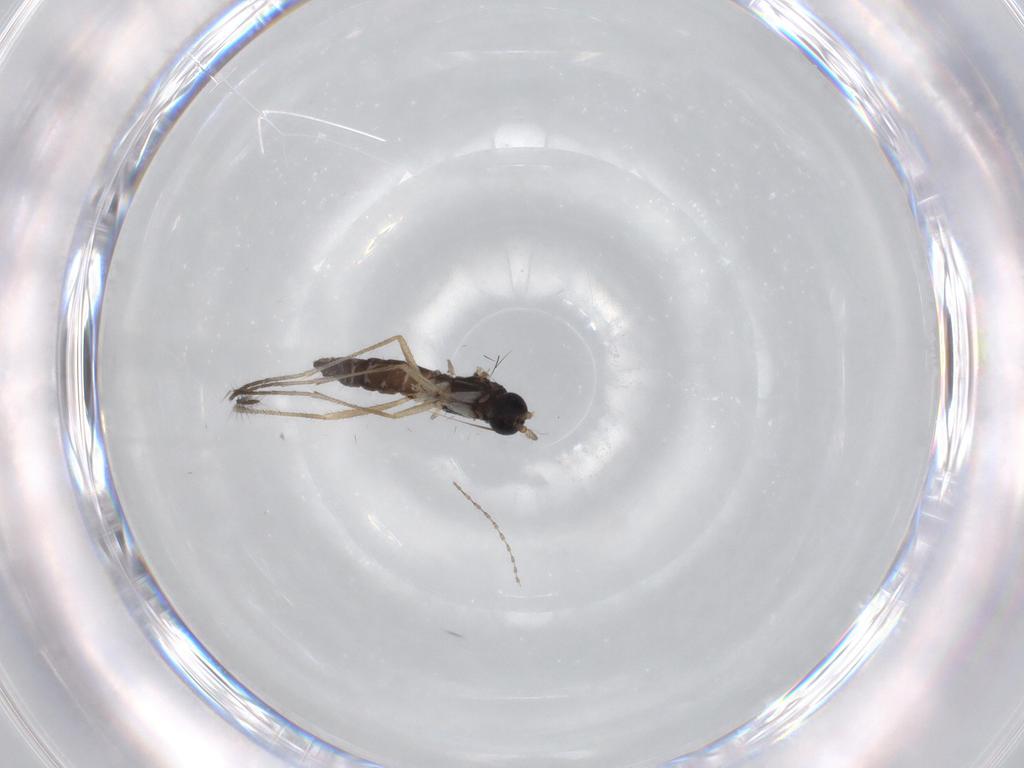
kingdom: Animalia
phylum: Arthropoda
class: Insecta
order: Diptera
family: Sciaridae
